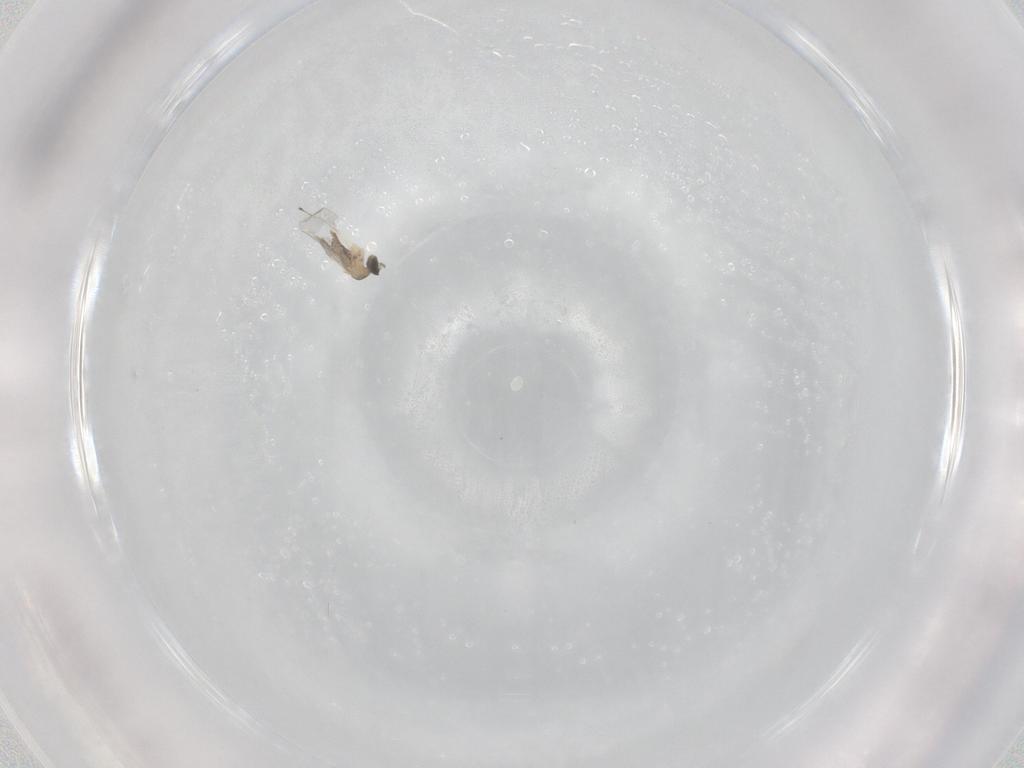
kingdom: Animalia
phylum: Arthropoda
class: Insecta
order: Diptera
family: Cecidomyiidae
